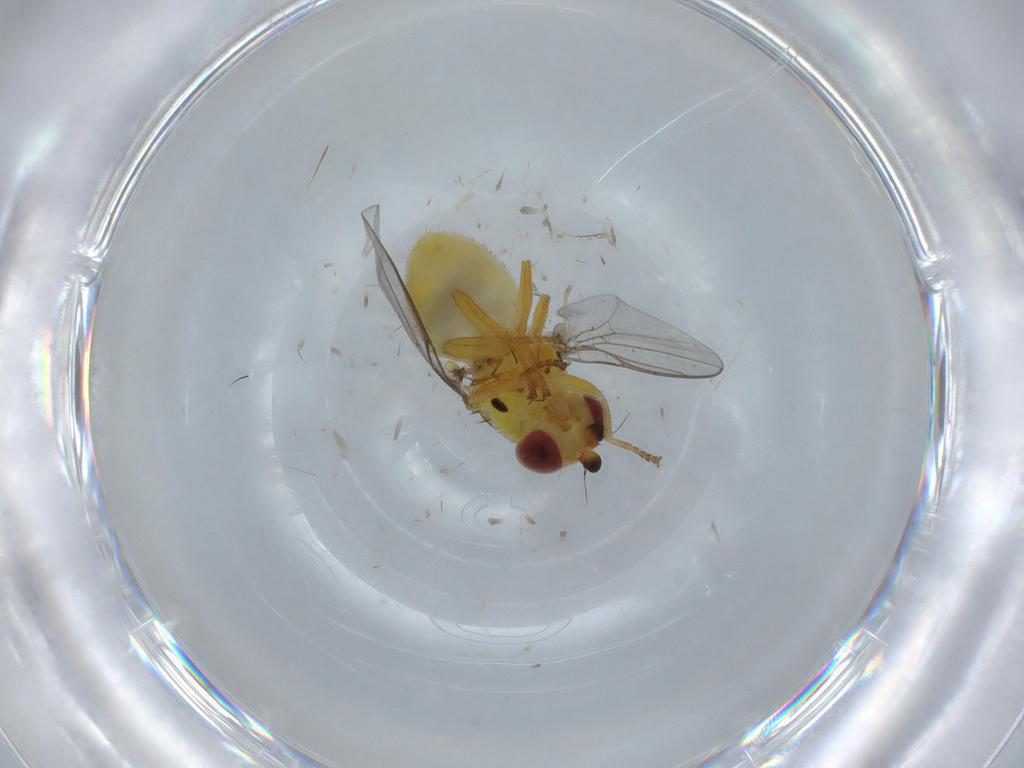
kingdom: Animalia
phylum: Arthropoda
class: Insecta
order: Diptera
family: Chloropidae
